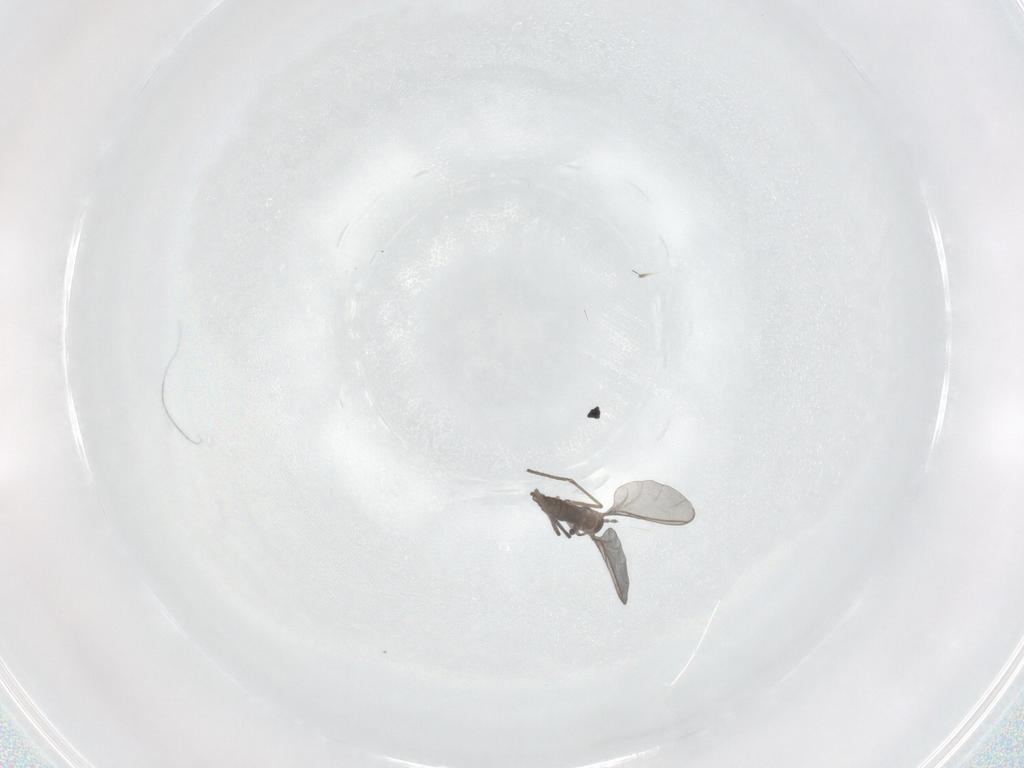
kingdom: Animalia
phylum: Arthropoda
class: Insecta
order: Diptera
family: Sciaridae
